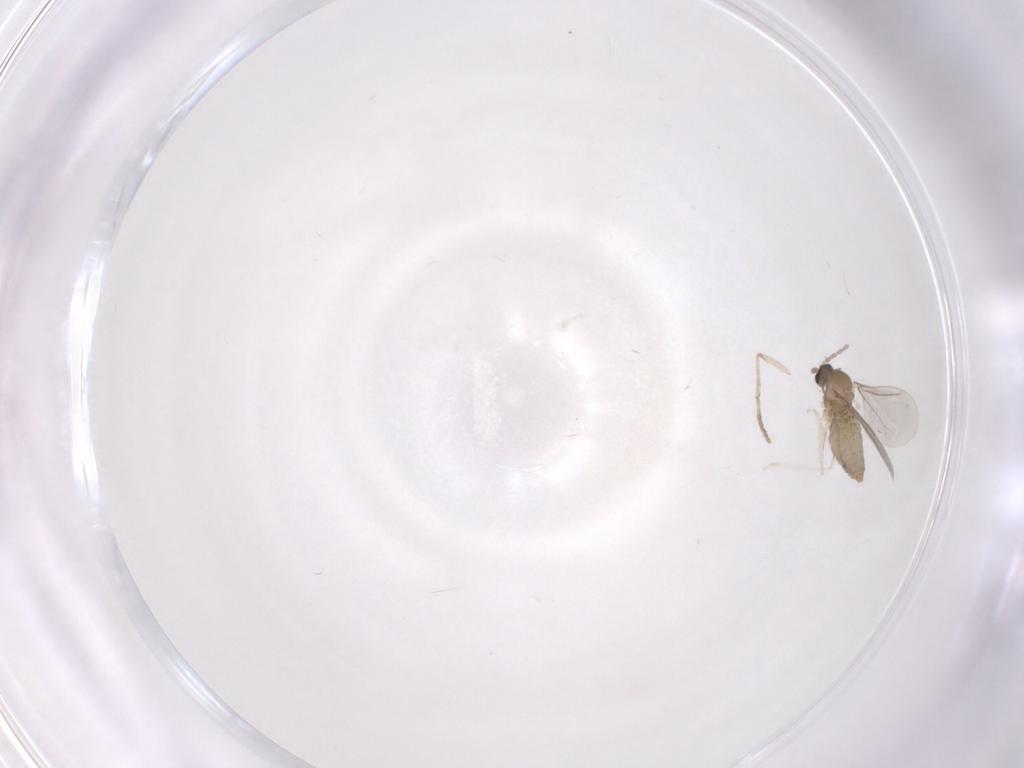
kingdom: Animalia
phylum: Arthropoda
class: Insecta
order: Diptera
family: Cecidomyiidae
